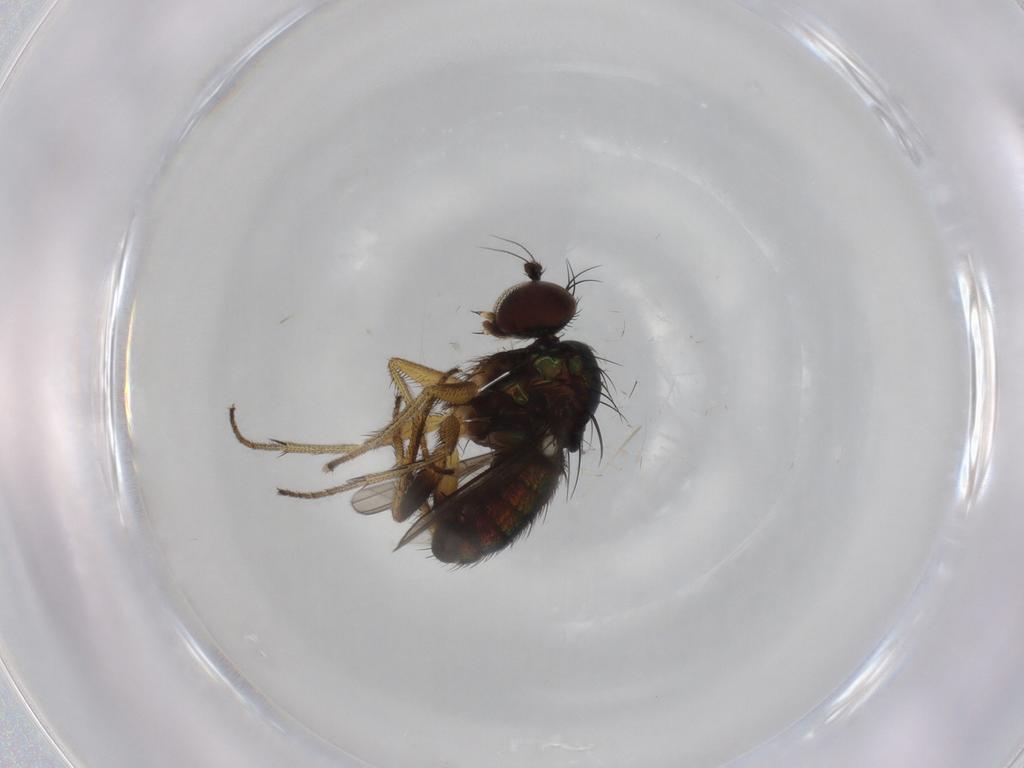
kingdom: Animalia
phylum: Arthropoda
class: Insecta
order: Diptera
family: Dolichopodidae
